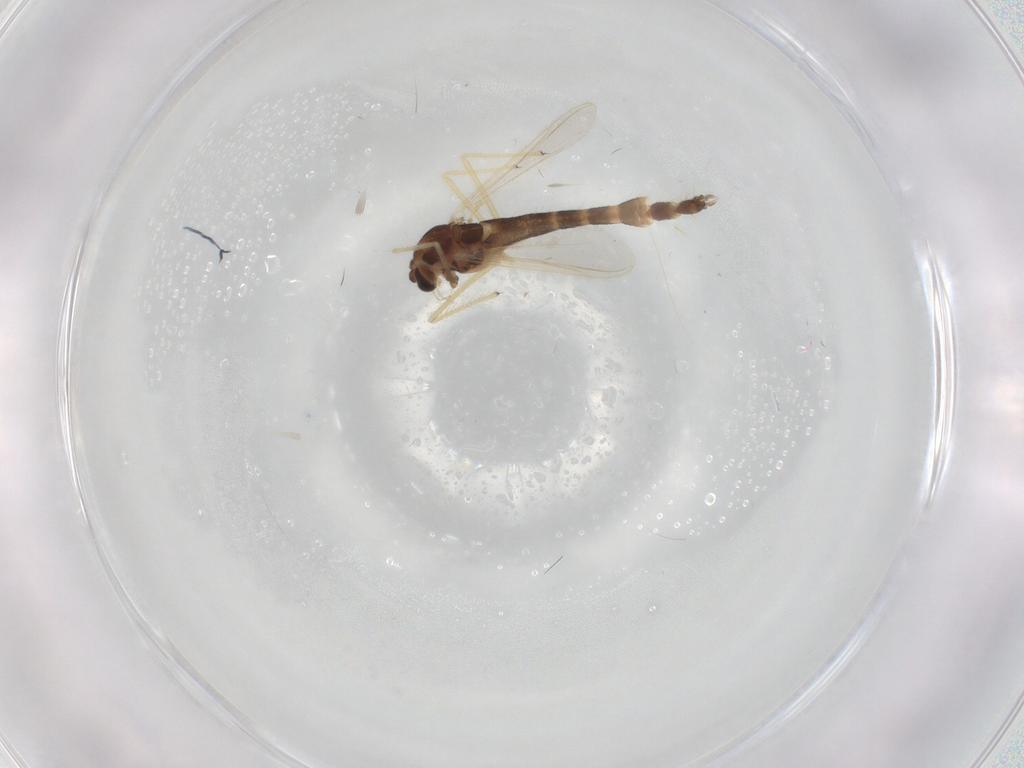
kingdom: Animalia
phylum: Arthropoda
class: Insecta
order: Diptera
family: Chironomidae
